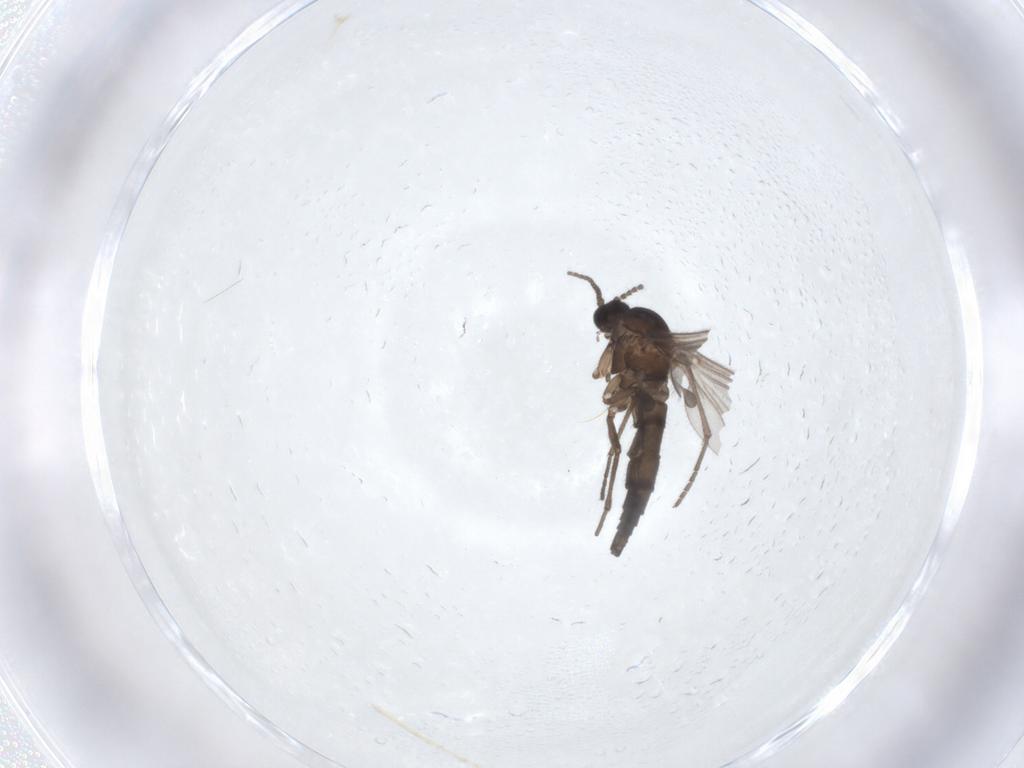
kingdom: Animalia
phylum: Arthropoda
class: Insecta
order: Diptera
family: Sciaridae
